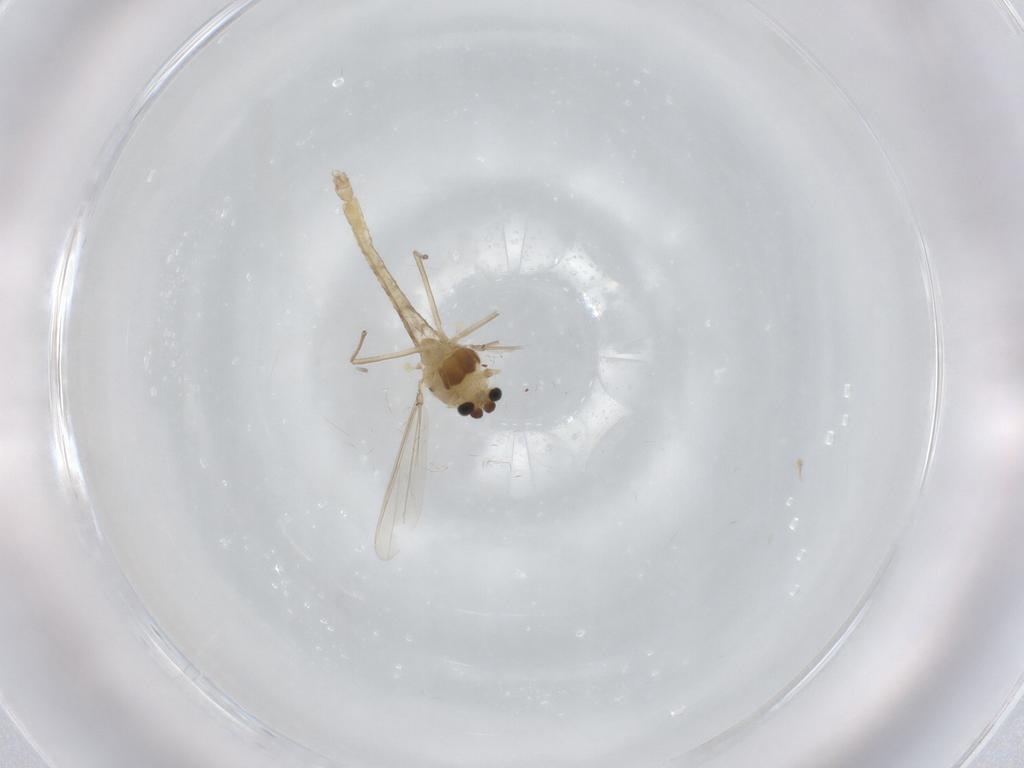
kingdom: Animalia
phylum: Arthropoda
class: Insecta
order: Diptera
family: Chironomidae
